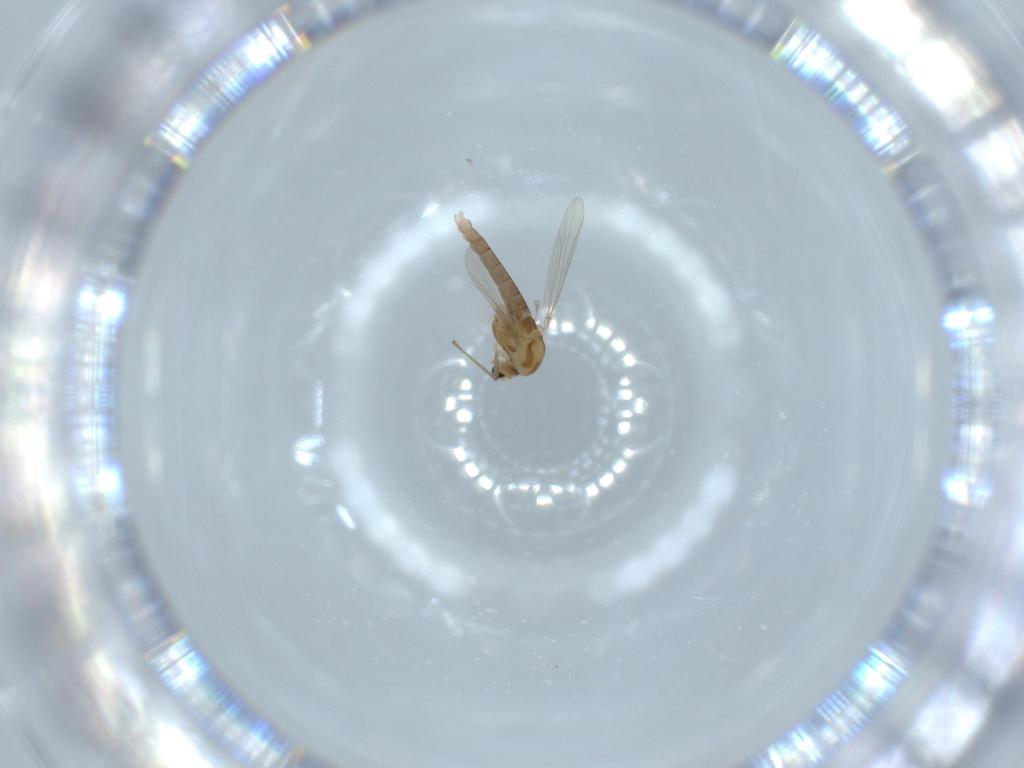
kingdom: Animalia
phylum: Arthropoda
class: Insecta
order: Diptera
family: Chironomidae
